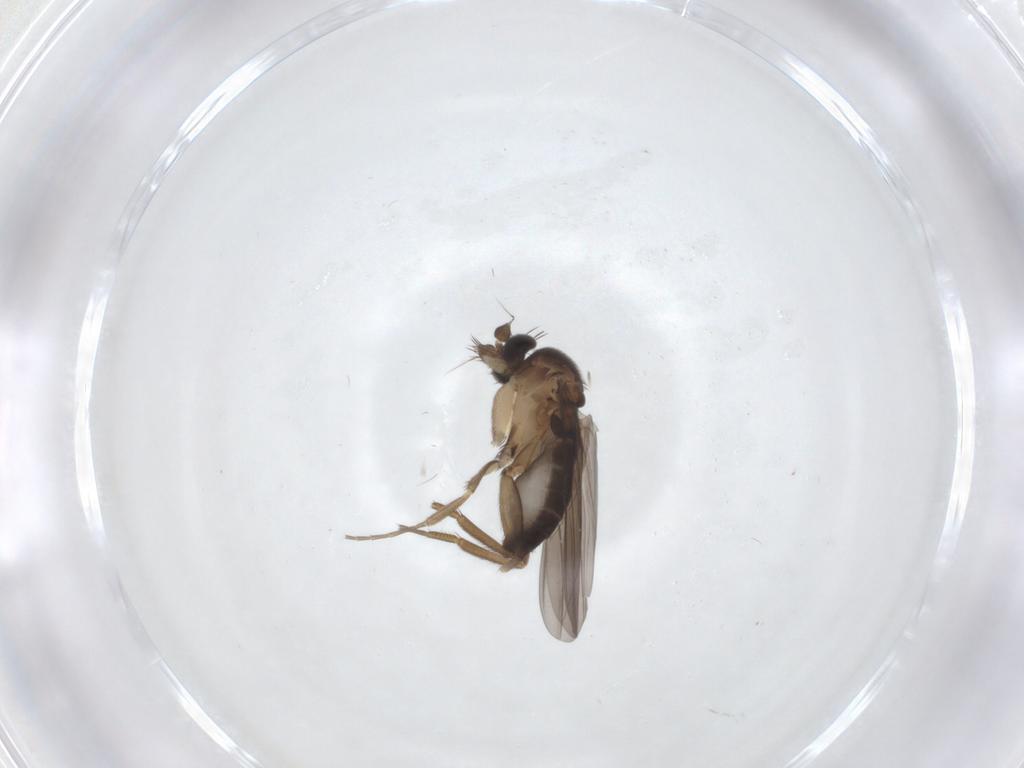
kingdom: Animalia
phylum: Arthropoda
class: Insecta
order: Diptera
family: Phoridae
